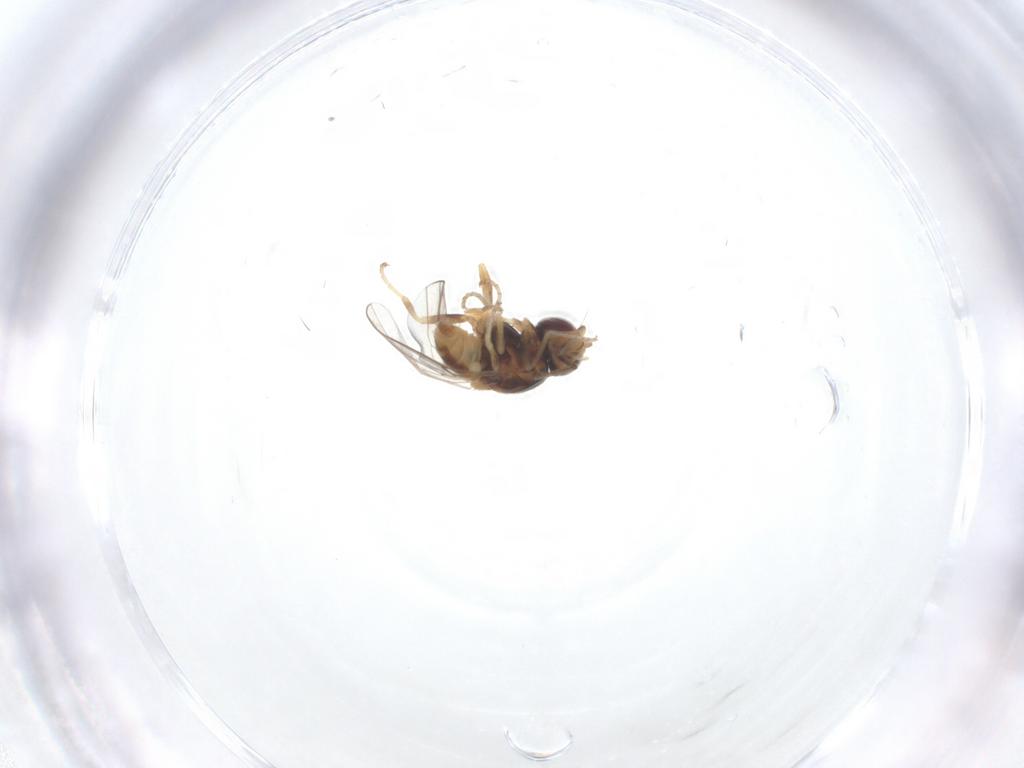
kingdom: Animalia
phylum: Arthropoda
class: Insecta
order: Diptera
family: Chloropidae
